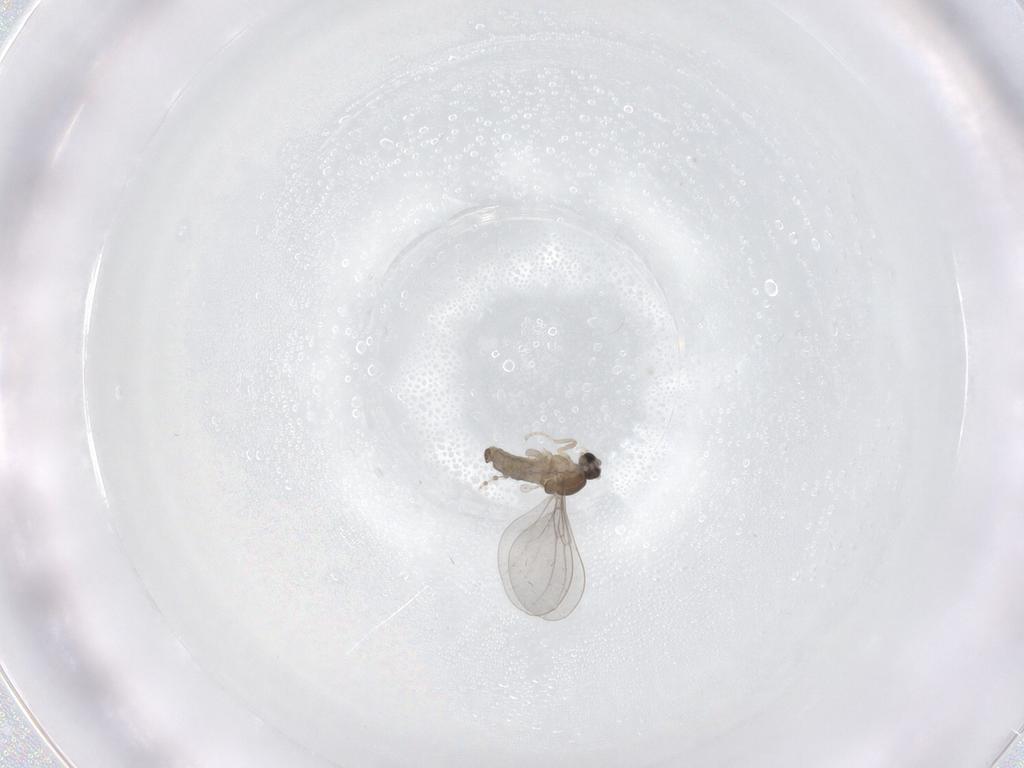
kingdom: Animalia
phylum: Arthropoda
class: Insecta
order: Diptera
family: Cecidomyiidae
